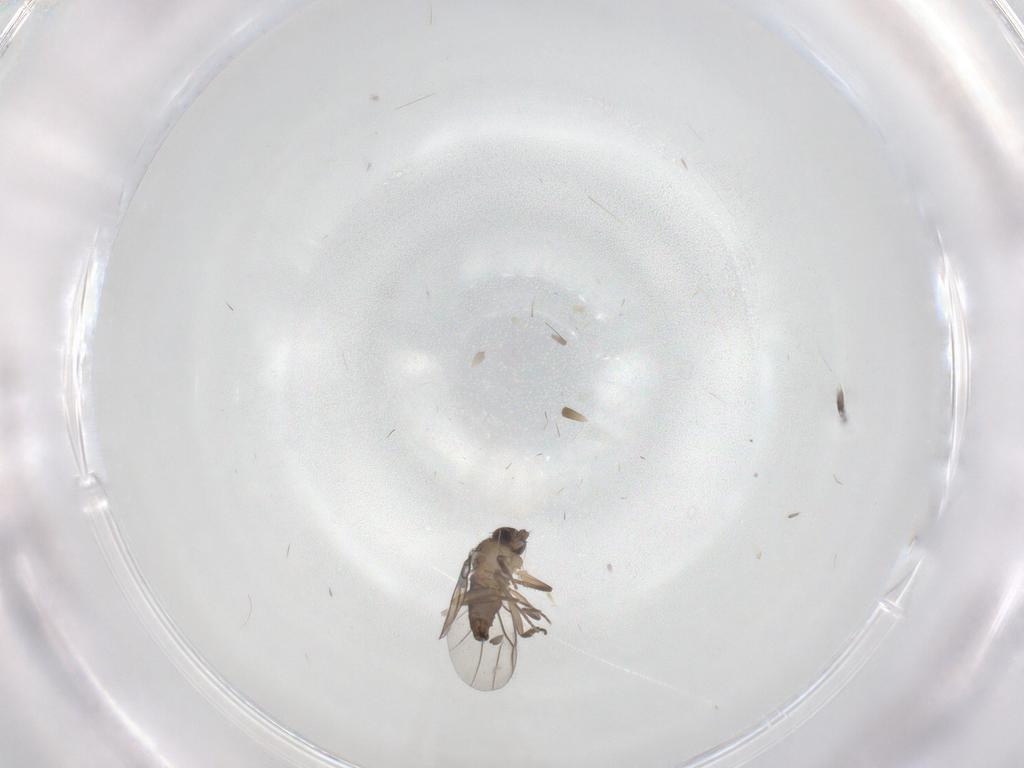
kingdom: Animalia
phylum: Arthropoda
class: Insecta
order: Diptera
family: Phoridae
